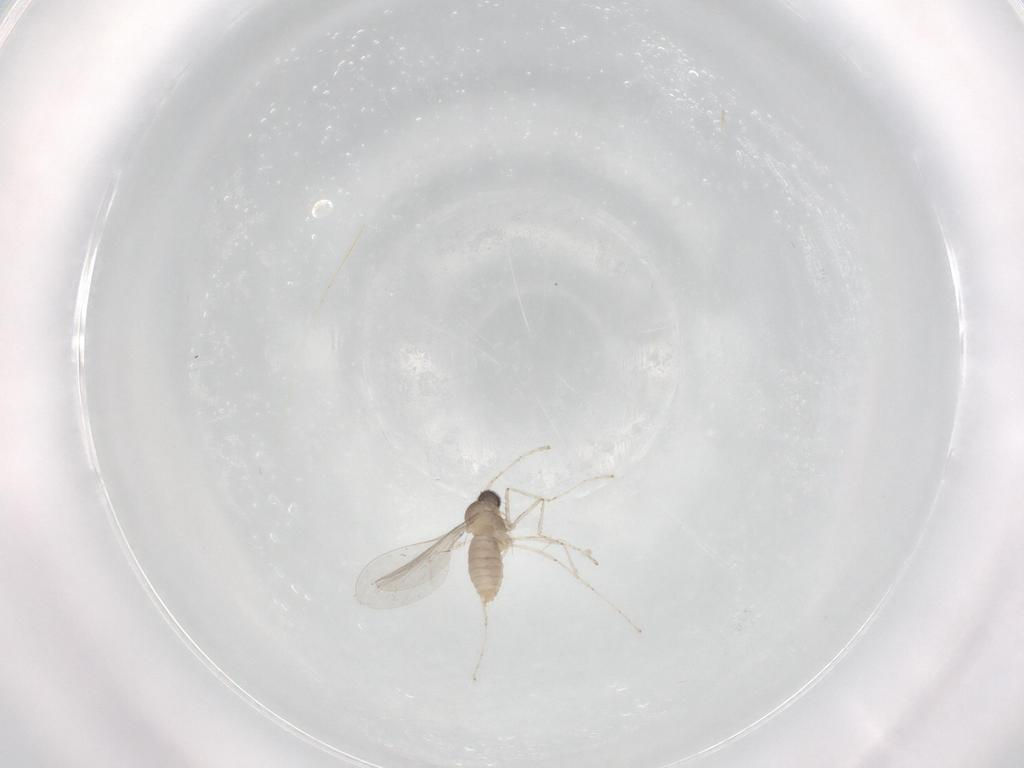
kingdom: Animalia
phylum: Arthropoda
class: Insecta
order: Diptera
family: Cecidomyiidae
